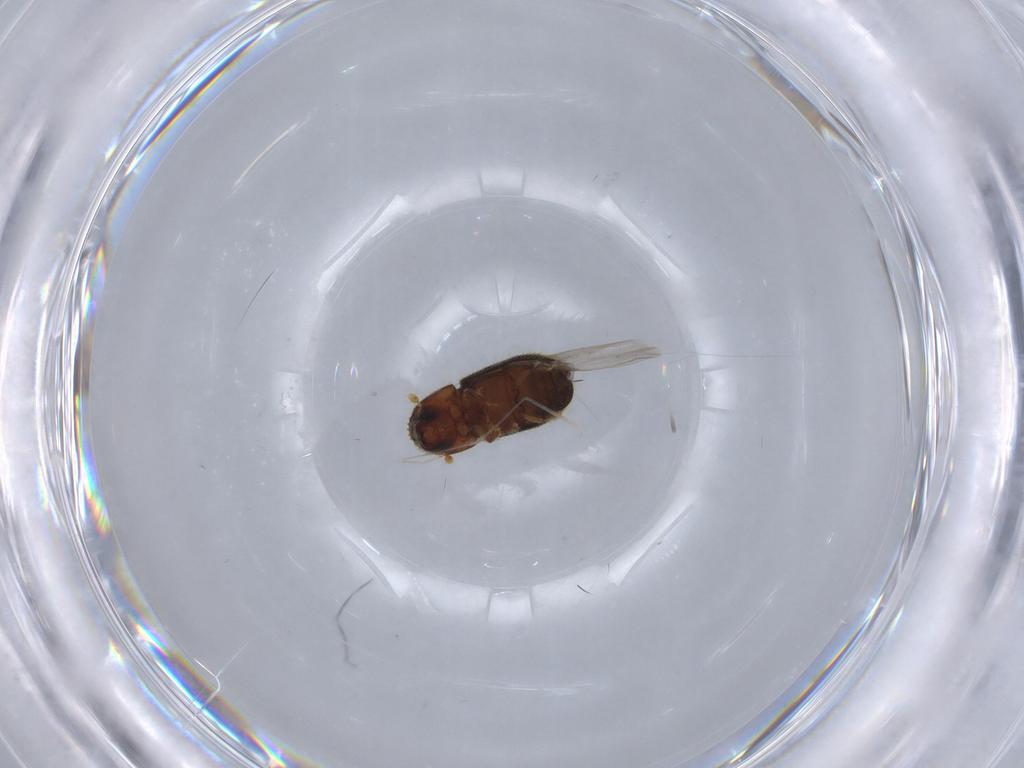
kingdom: Animalia
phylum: Arthropoda
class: Insecta
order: Coleoptera
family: Curculionidae
